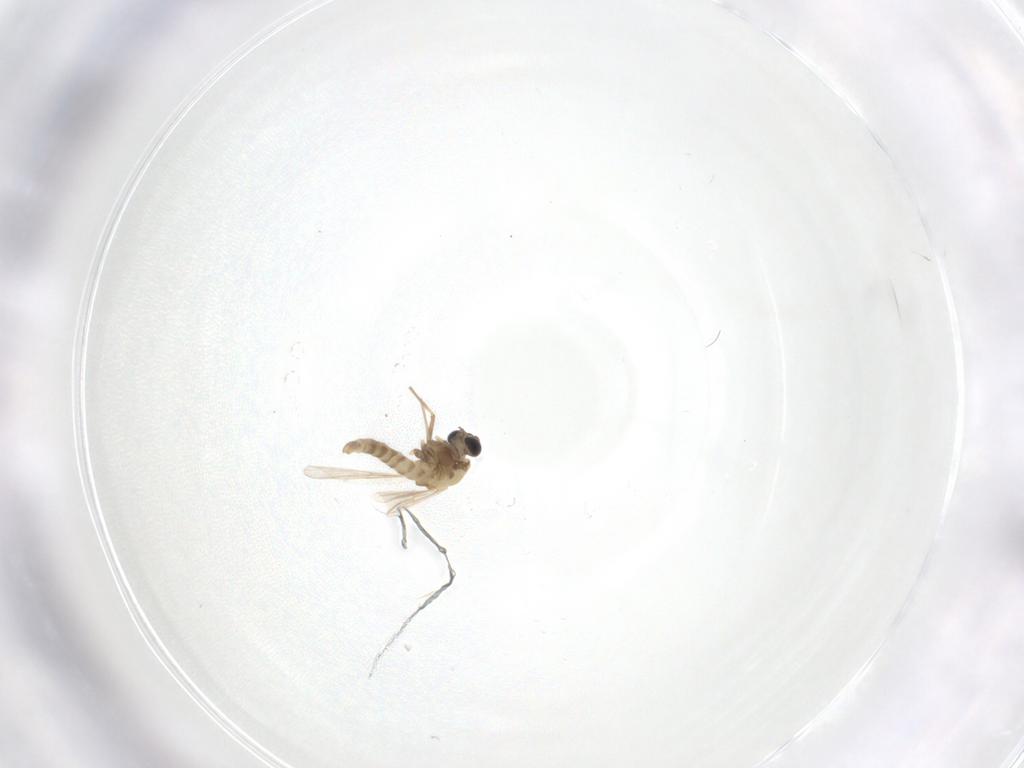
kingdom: Animalia
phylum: Arthropoda
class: Insecta
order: Diptera
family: Chironomidae
